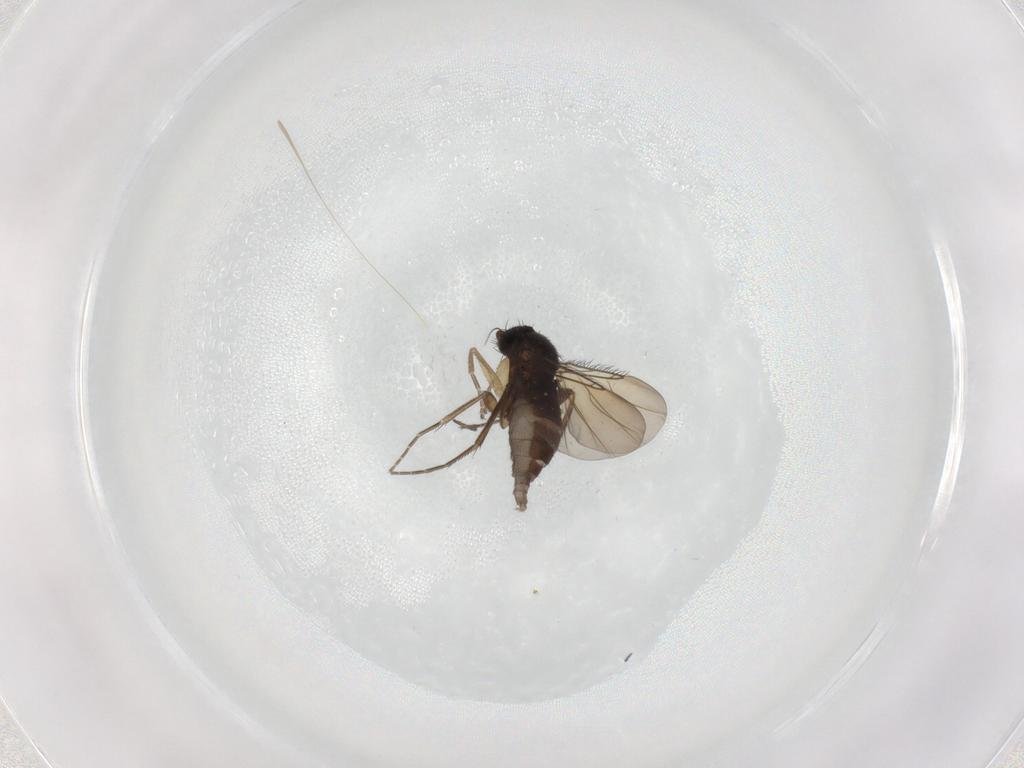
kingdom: Animalia
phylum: Arthropoda
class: Insecta
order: Diptera
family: Phoridae
